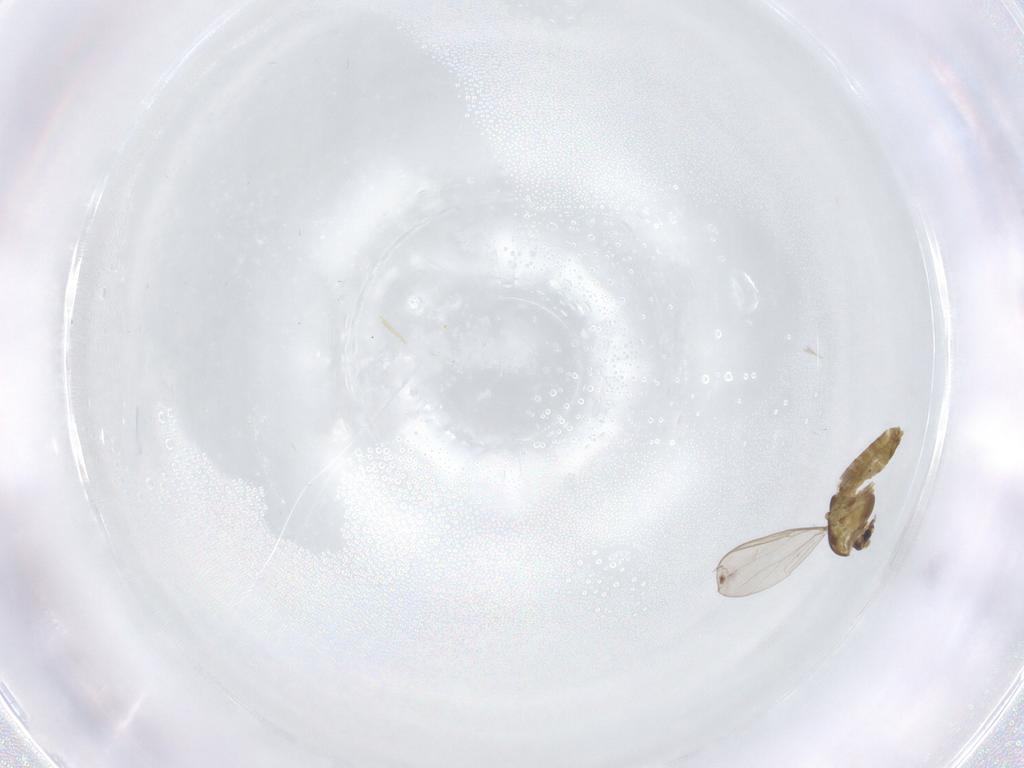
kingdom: Animalia
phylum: Arthropoda
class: Insecta
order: Diptera
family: Chironomidae
